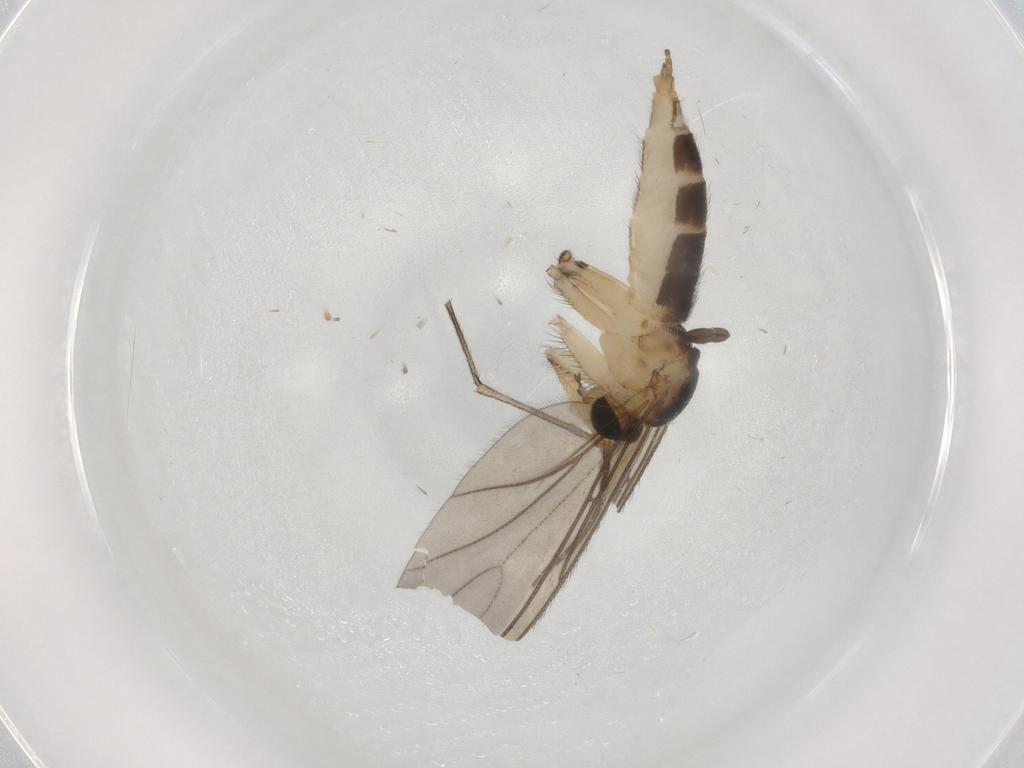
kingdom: Animalia
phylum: Arthropoda
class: Insecta
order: Diptera
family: Sciaridae
